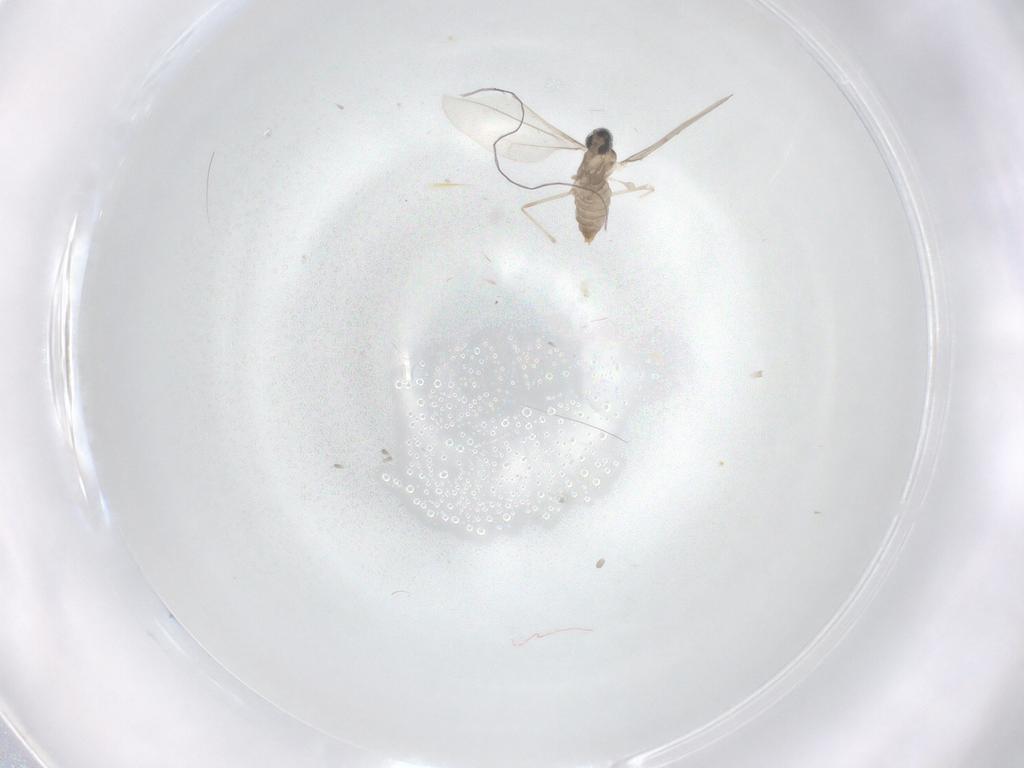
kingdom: Animalia
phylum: Arthropoda
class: Insecta
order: Diptera
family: Cecidomyiidae
